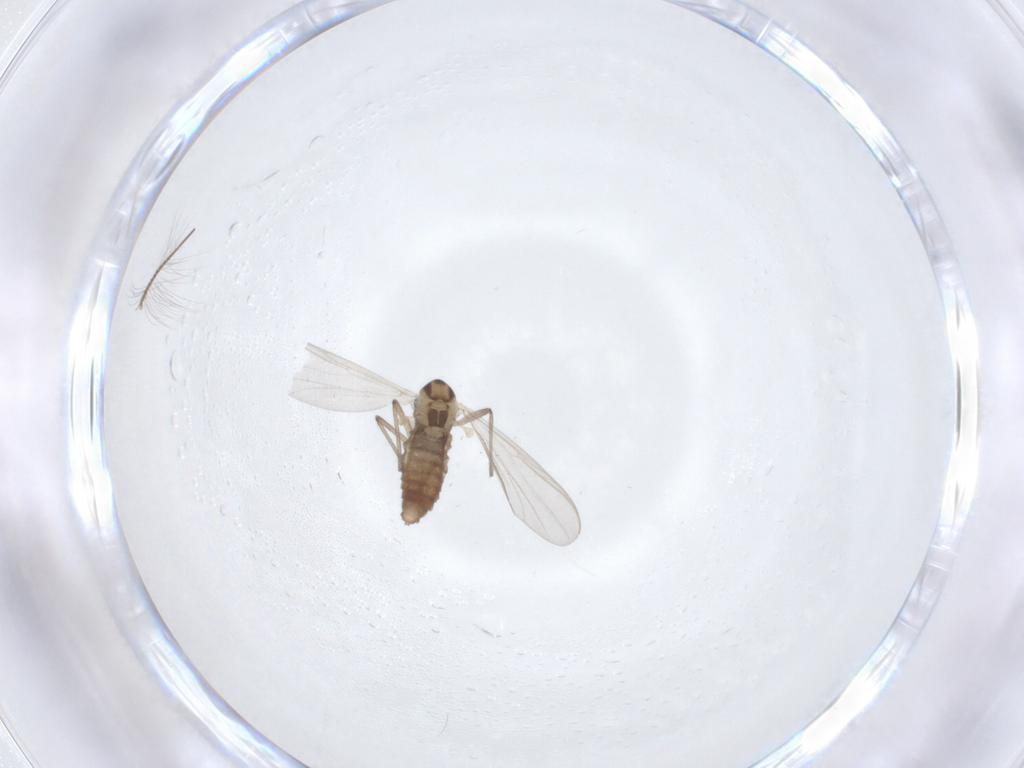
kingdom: Animalia
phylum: Arthropoda
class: Insecta
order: Diptera
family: Chironomidae
